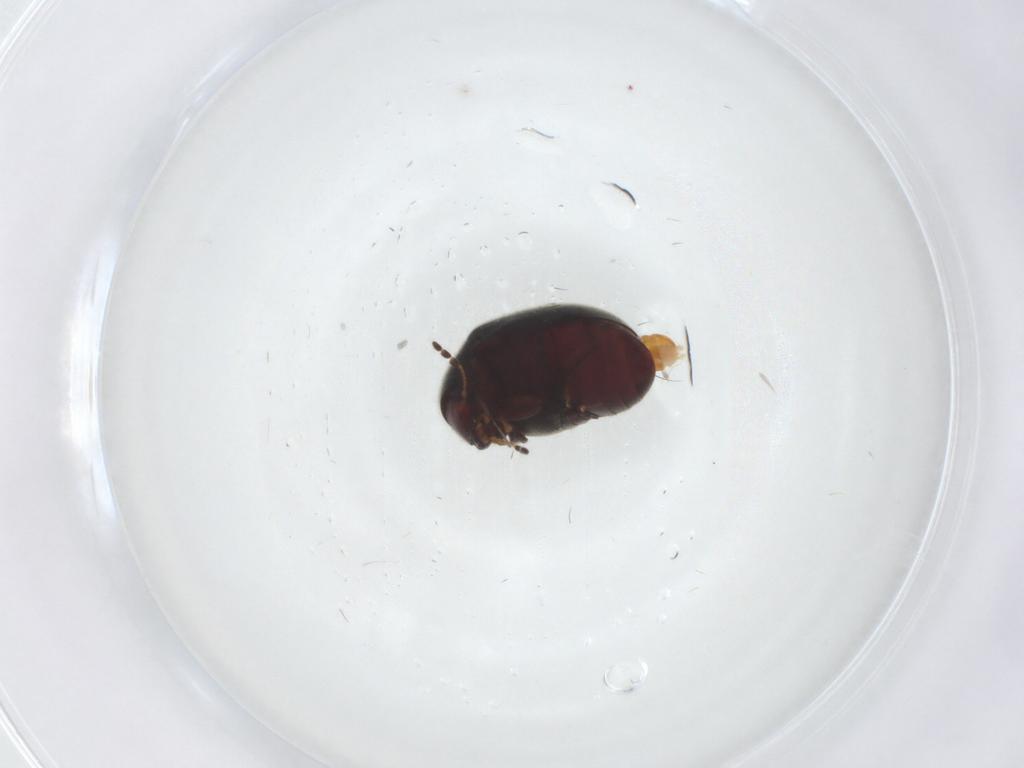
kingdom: Animalia
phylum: Arthropoda
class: Insecta
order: Coleoptera
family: Ptinidae
